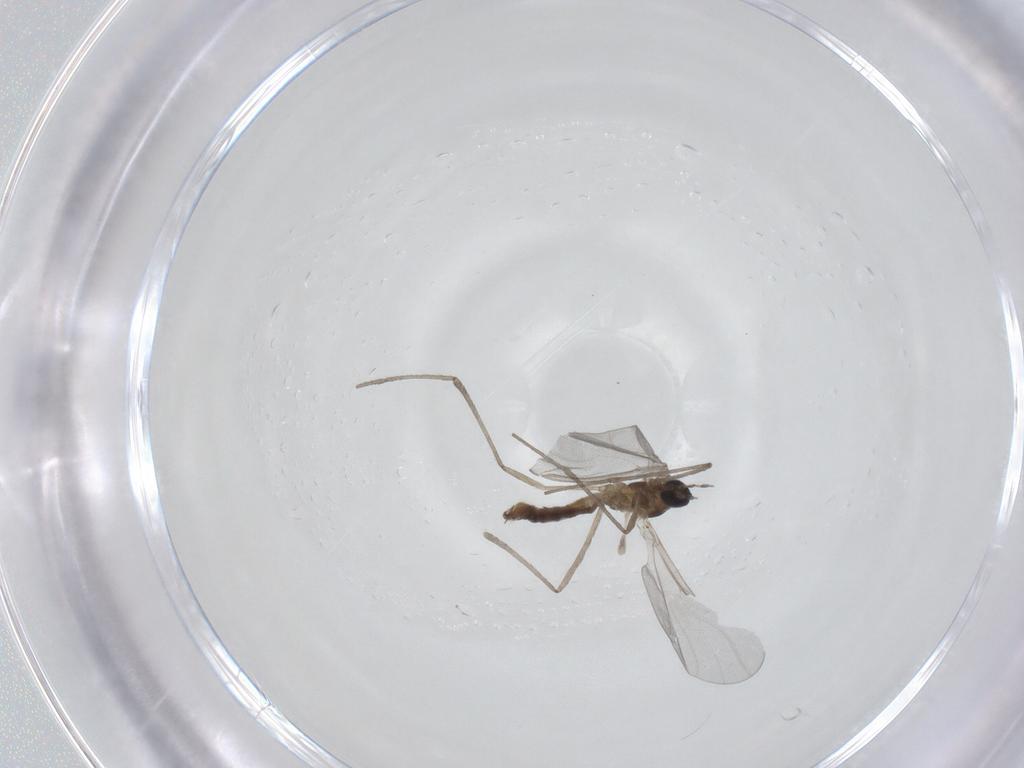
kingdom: Animalia
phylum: Arthropoda
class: Insecta
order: Diptera
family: Cecidomyiidae
